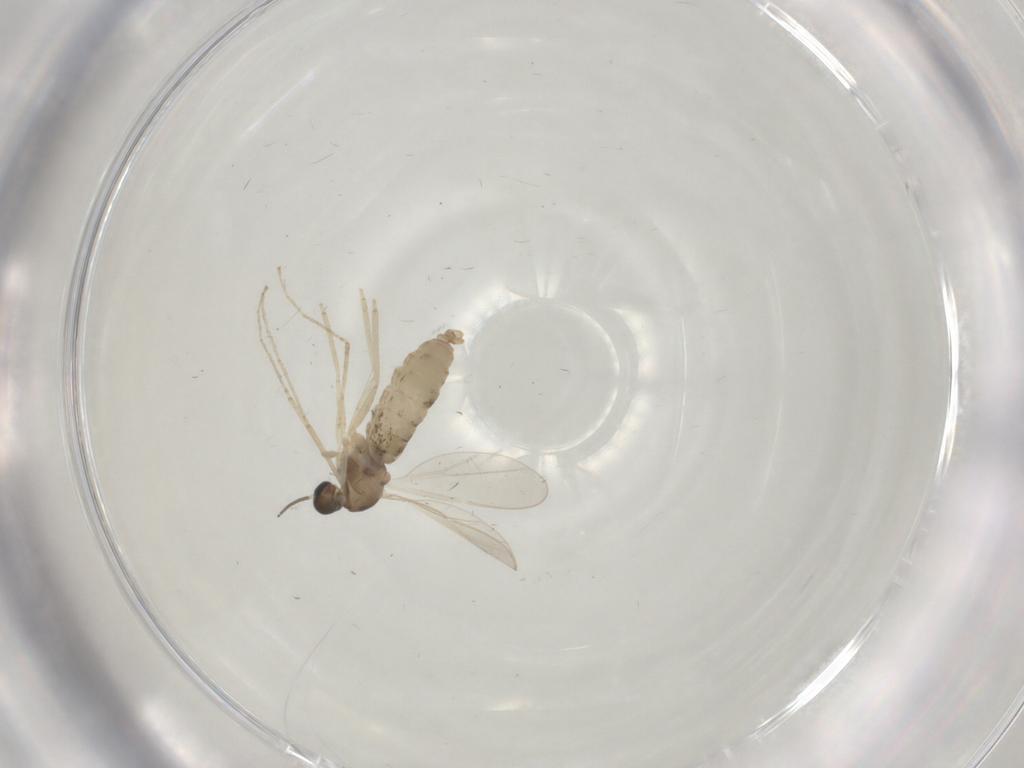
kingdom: Animalia
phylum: Arthropoda
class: Insecta
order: Diptera
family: Cecidomyiidae
